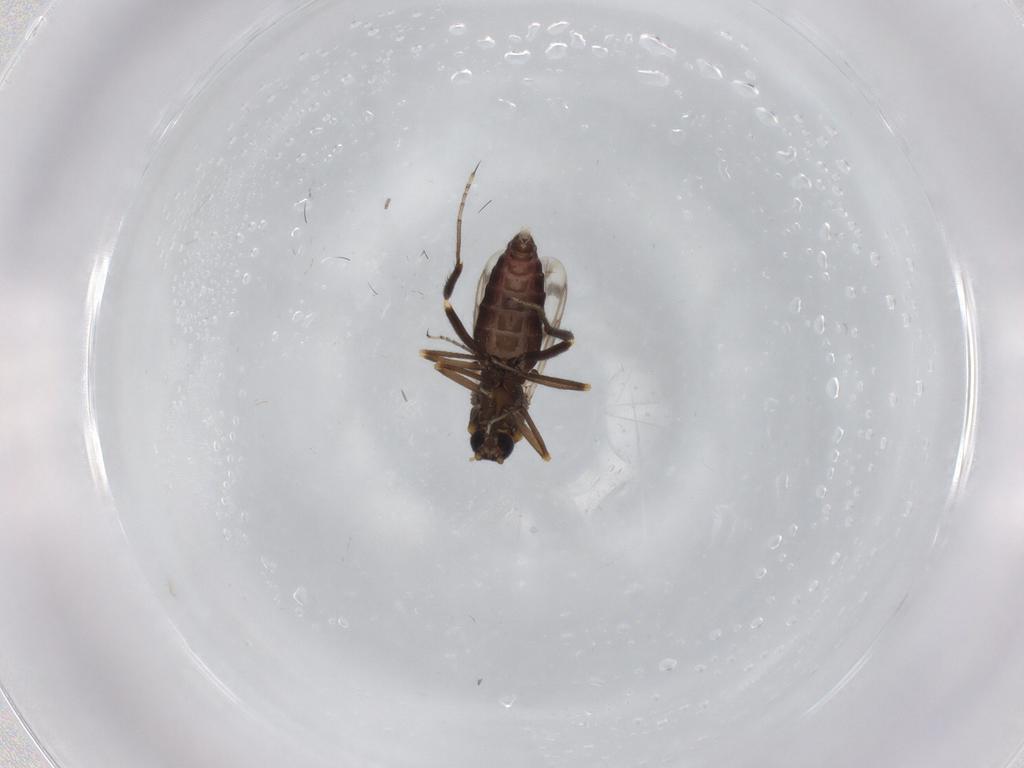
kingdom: Animalia
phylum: Arthropoda
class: Insecta
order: Diptera
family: Ceratopogonidae
